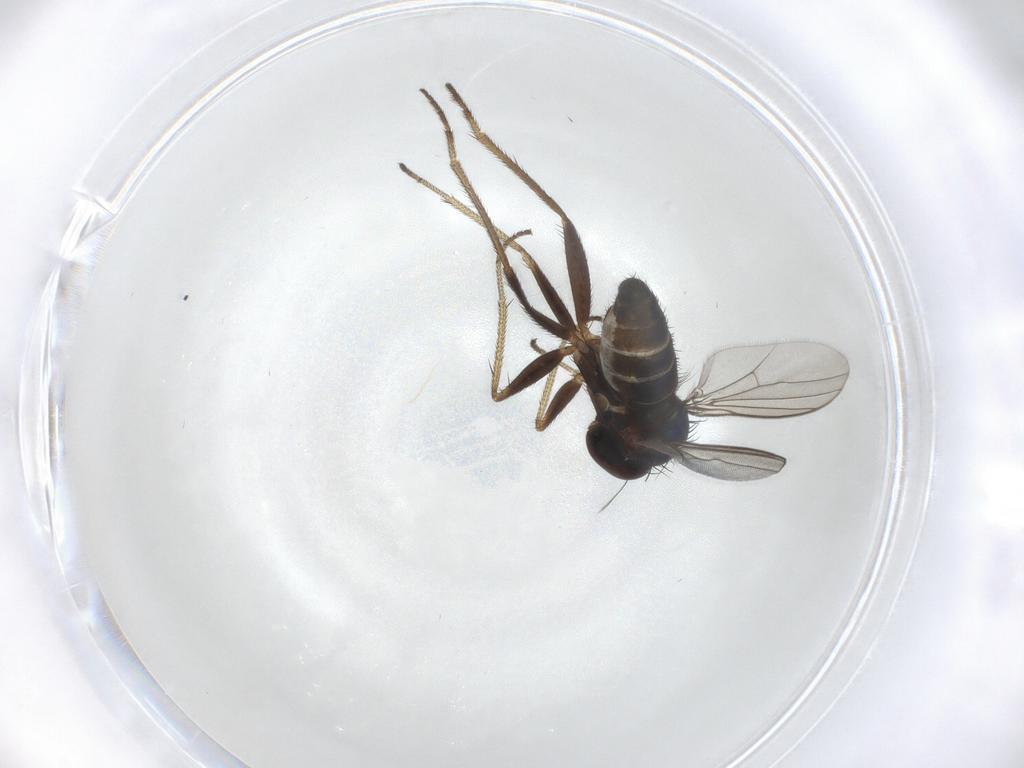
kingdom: Animalia
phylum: Arthropoda
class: Insecta
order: Diptera
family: Dolichopodidae
